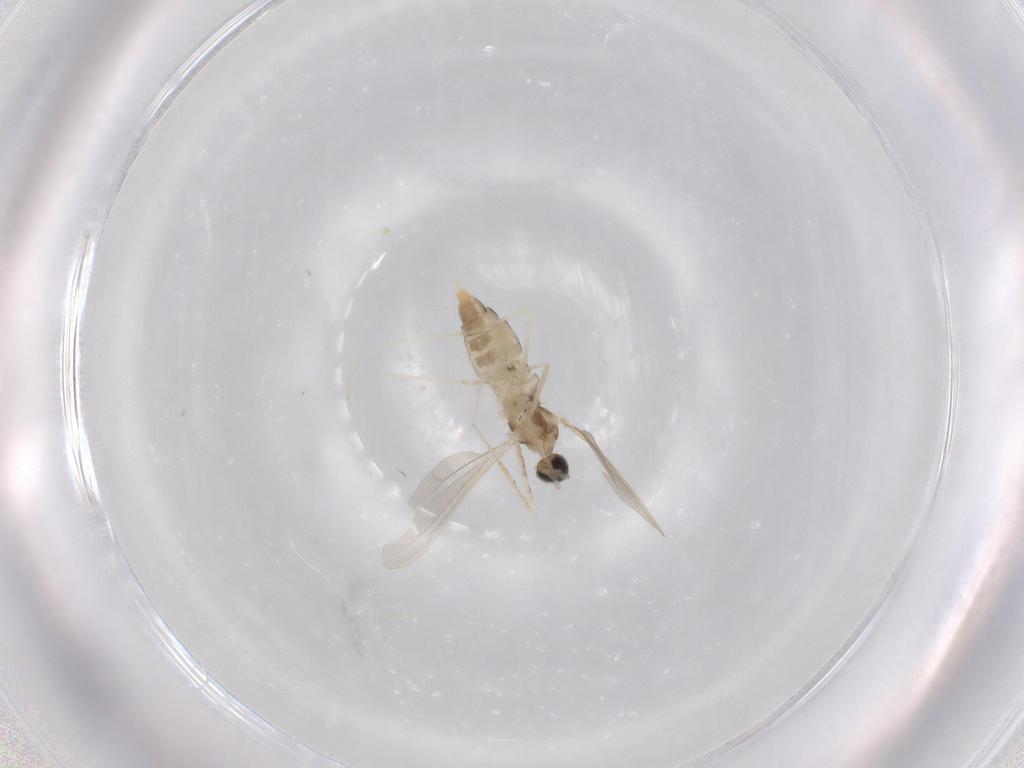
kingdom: Animalia
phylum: Arthropoda
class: Insecta
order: Diptera
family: Cecidomyiidae
